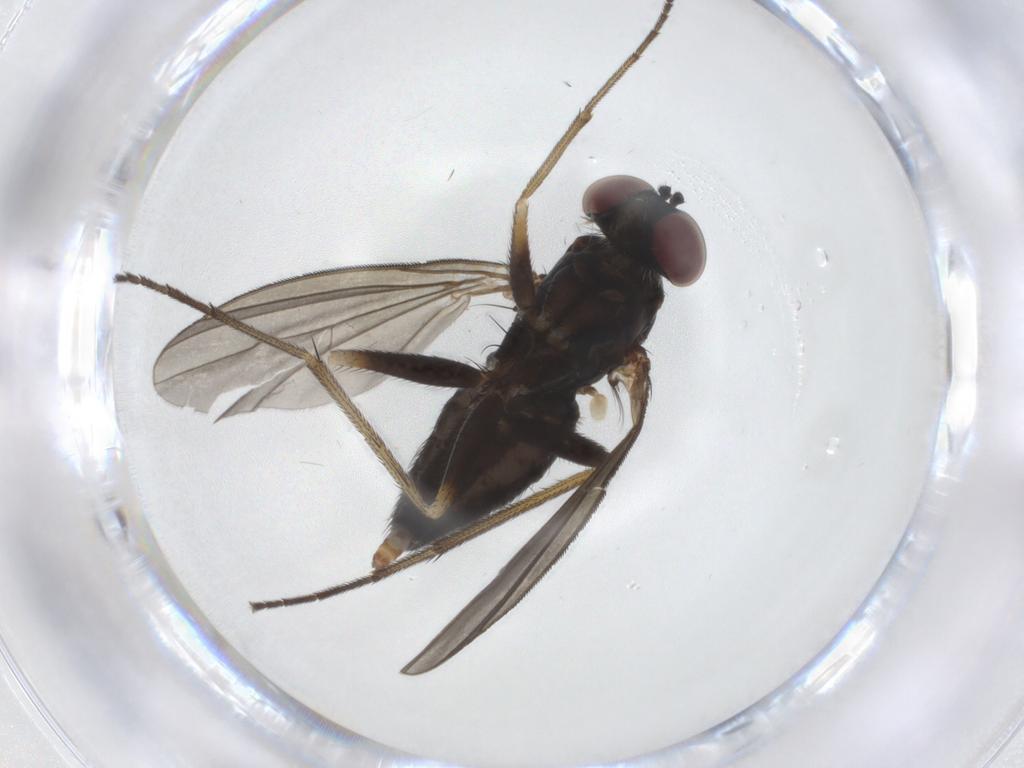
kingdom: Animalia
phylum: Arthropoda
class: Insecta
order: Diptera
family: Dolichopodidae
